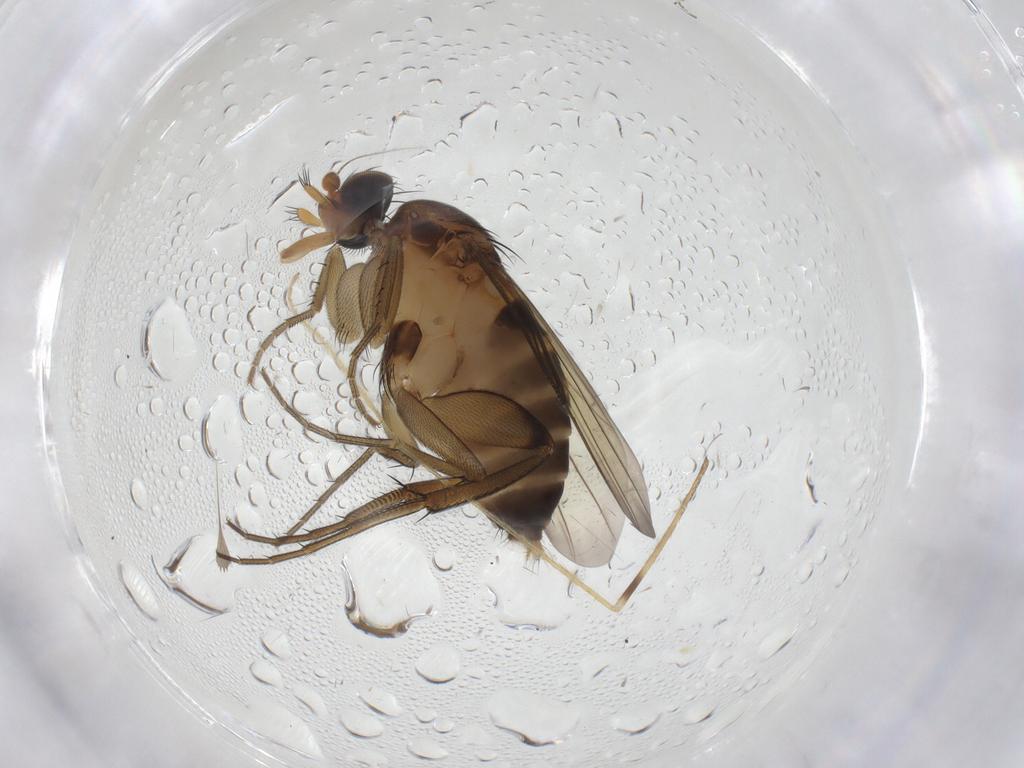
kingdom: Animalia
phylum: Arthropoda
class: Insecta
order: Diptera
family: Phoridae
